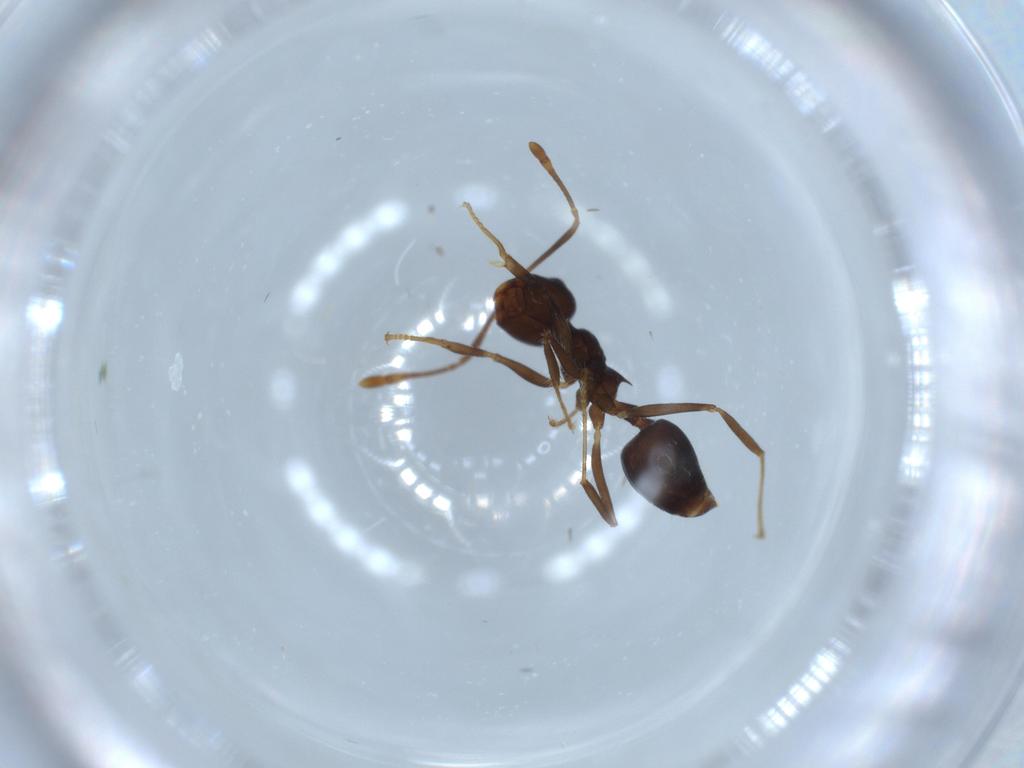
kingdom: Animalia
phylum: Arthropoda
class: Insecta
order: Hymenoptera
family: Formicidae
